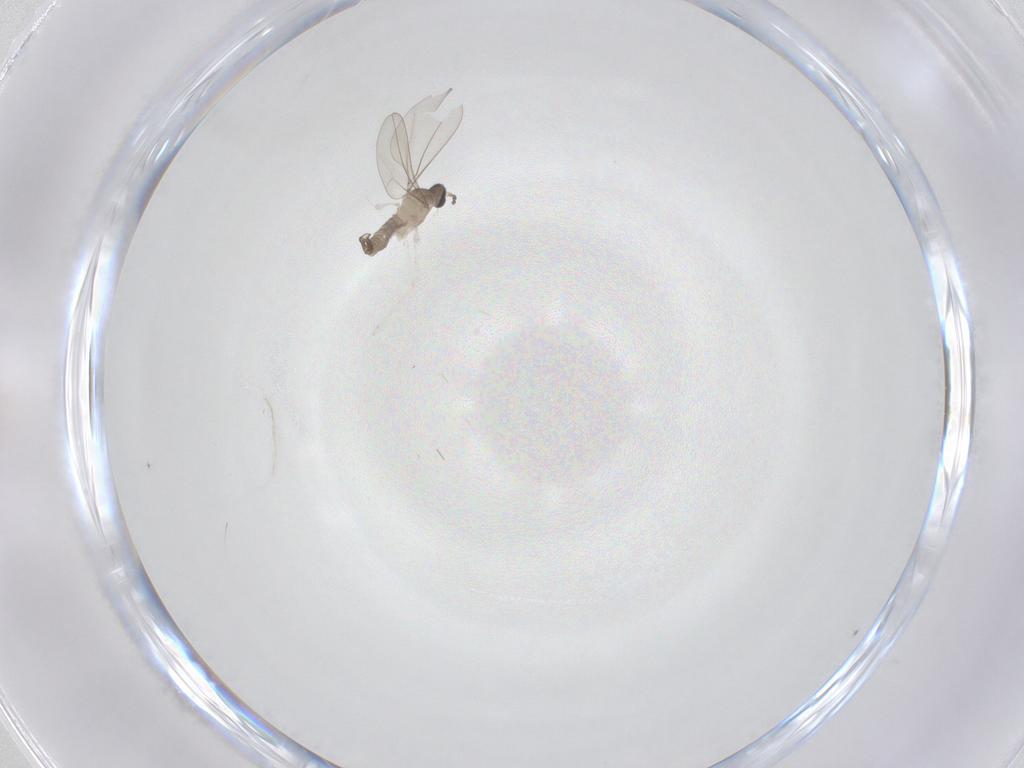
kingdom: Animalia
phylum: Arthropoda
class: Insecta
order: Diptera
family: Cecidomyiidae
